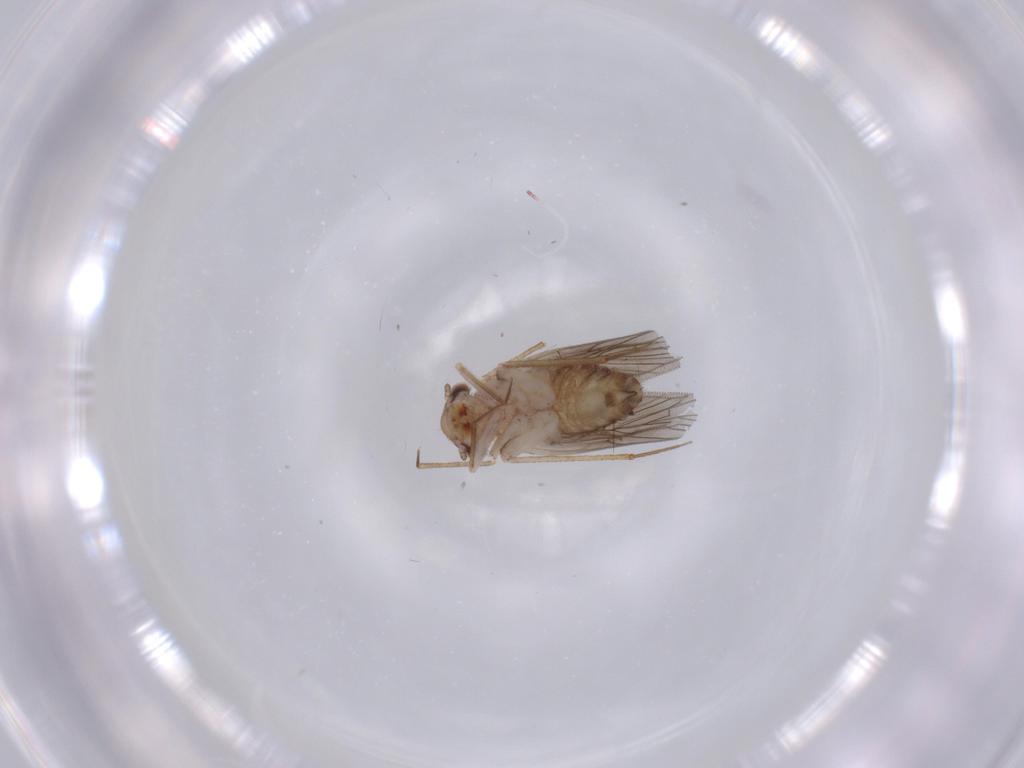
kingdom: Animalia
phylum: Arthropoda
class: Insecta
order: Psocodea
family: Lepidopsocidae
